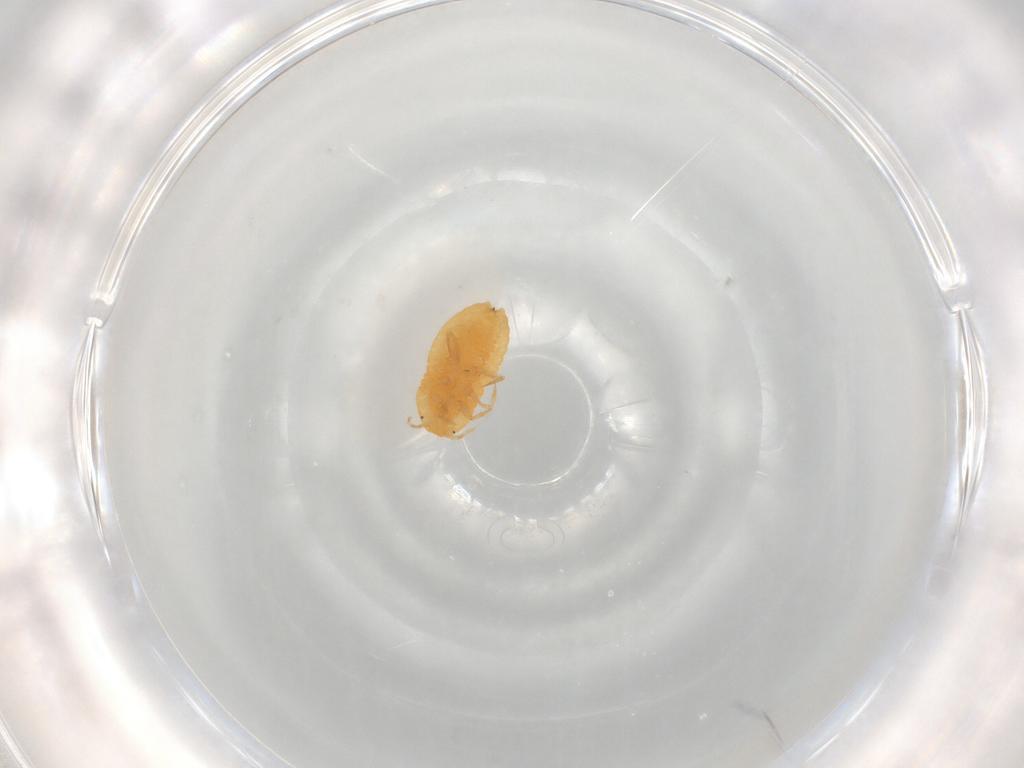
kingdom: Animalia
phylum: Arthropoda
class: Insecta
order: Hemiptera
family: Pseudococcidae
